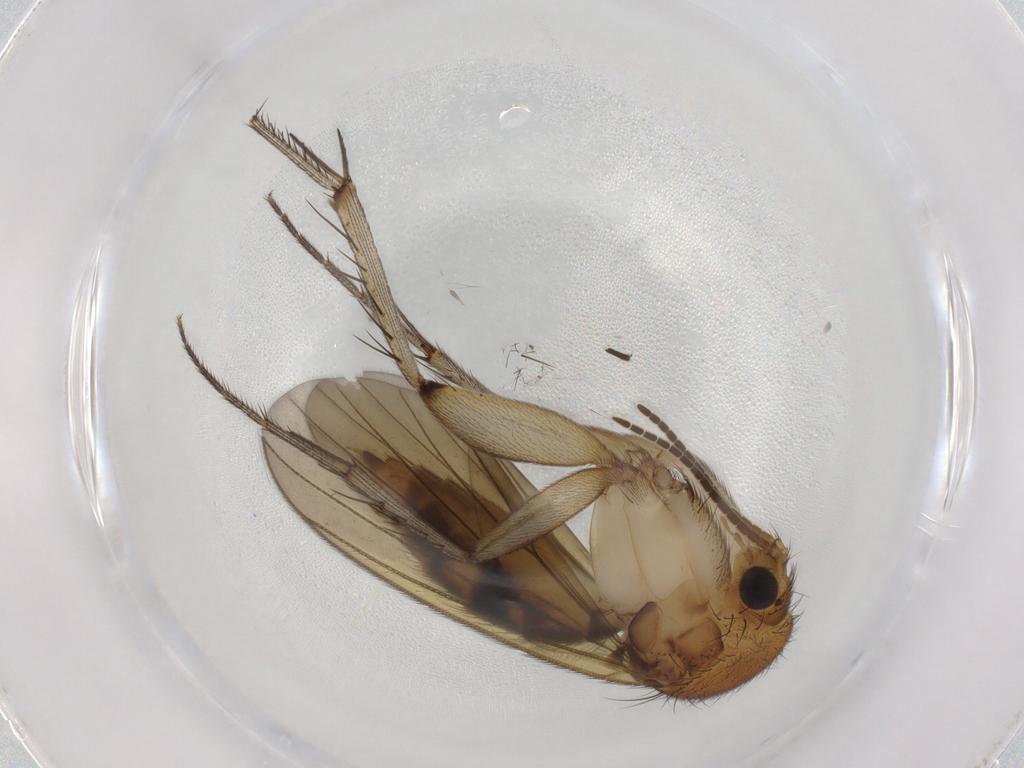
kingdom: Animalia
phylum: Arthropoda
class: Insecta
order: Diptera
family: Mycetophilidae
